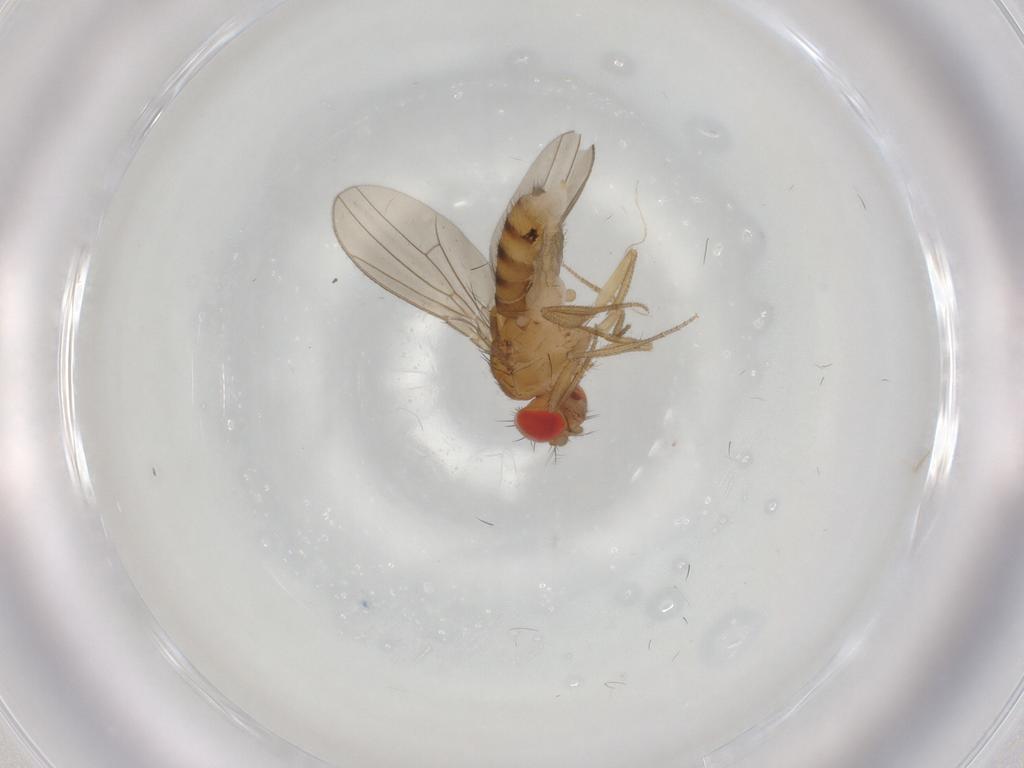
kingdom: Animalia
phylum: Arthropoda
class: Insecta
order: Diptera
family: Drosophilidae
